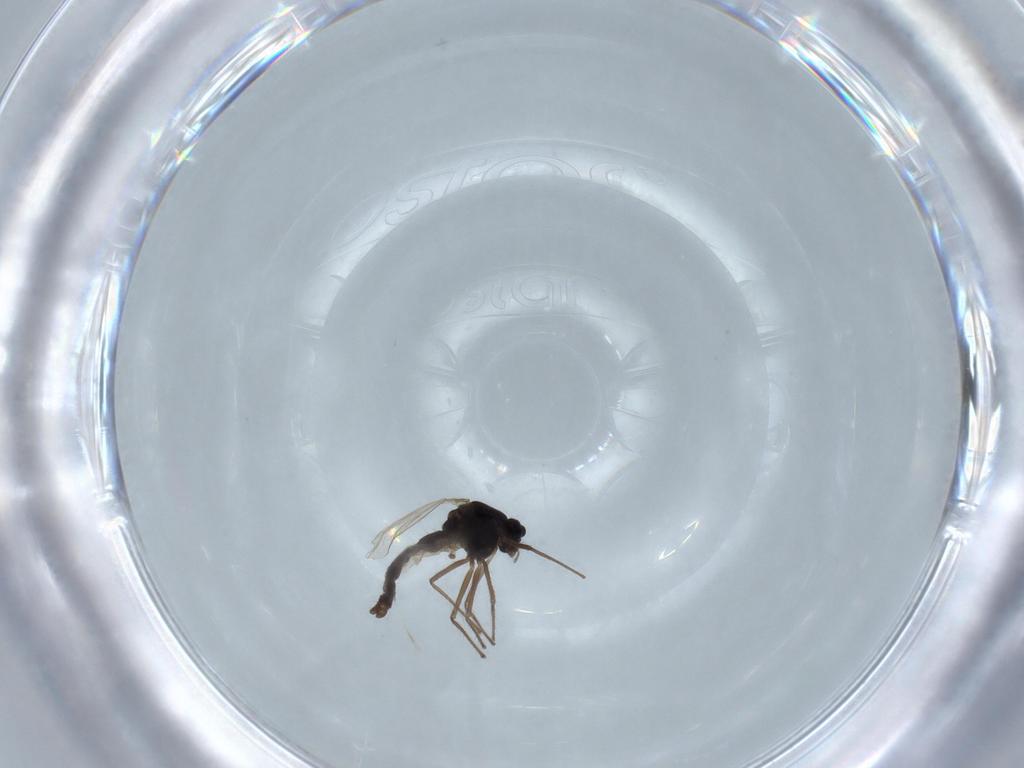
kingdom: Animalia
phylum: Arthropoda
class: Insecta
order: Diptera
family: Chironomidae
